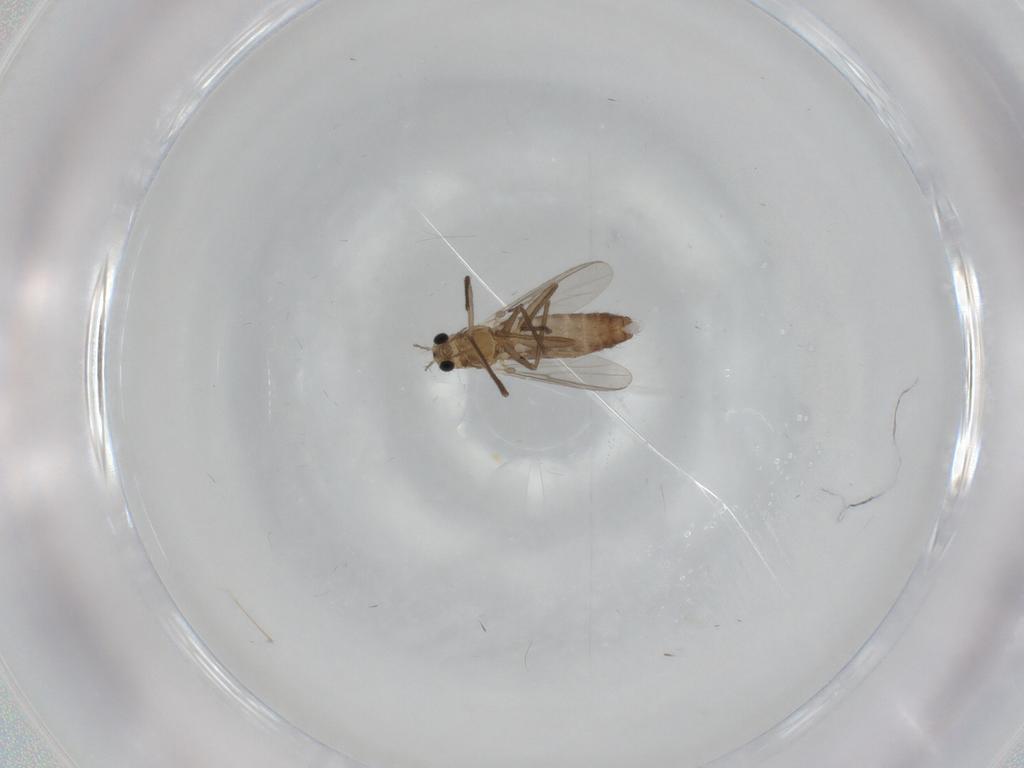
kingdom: Animalia
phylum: Arthropoda
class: Insecta
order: Diptera
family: Chironomidae
